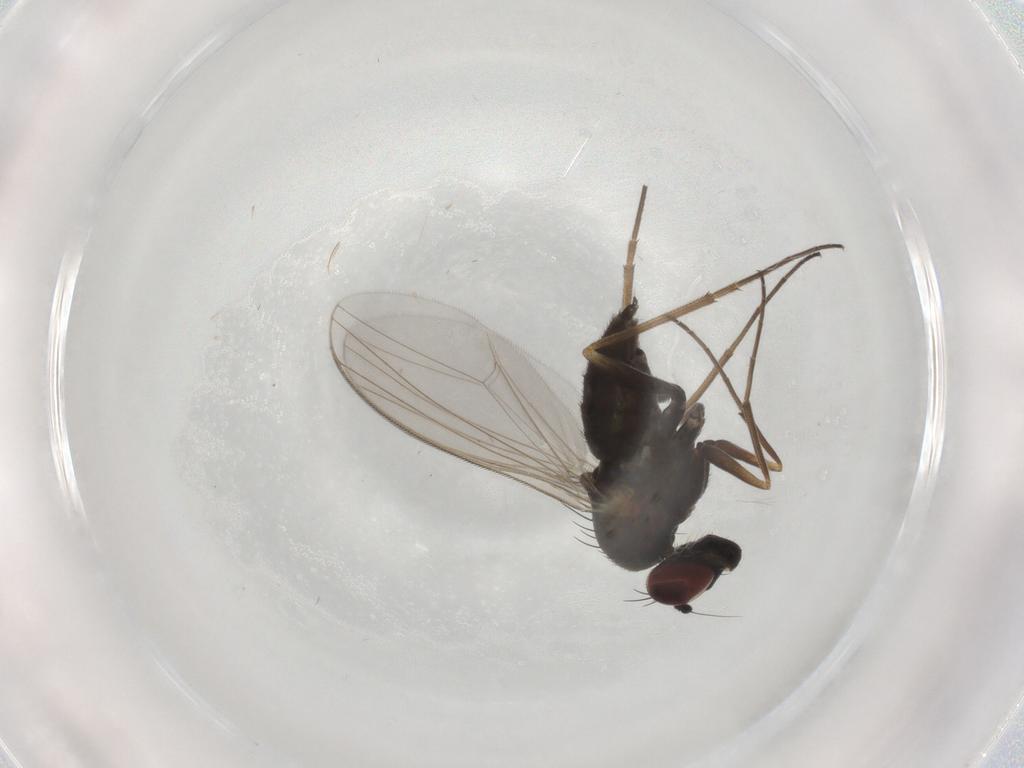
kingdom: Animalia
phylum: Arthropoda
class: Insecta
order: Diptera
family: Dolichopodidae
